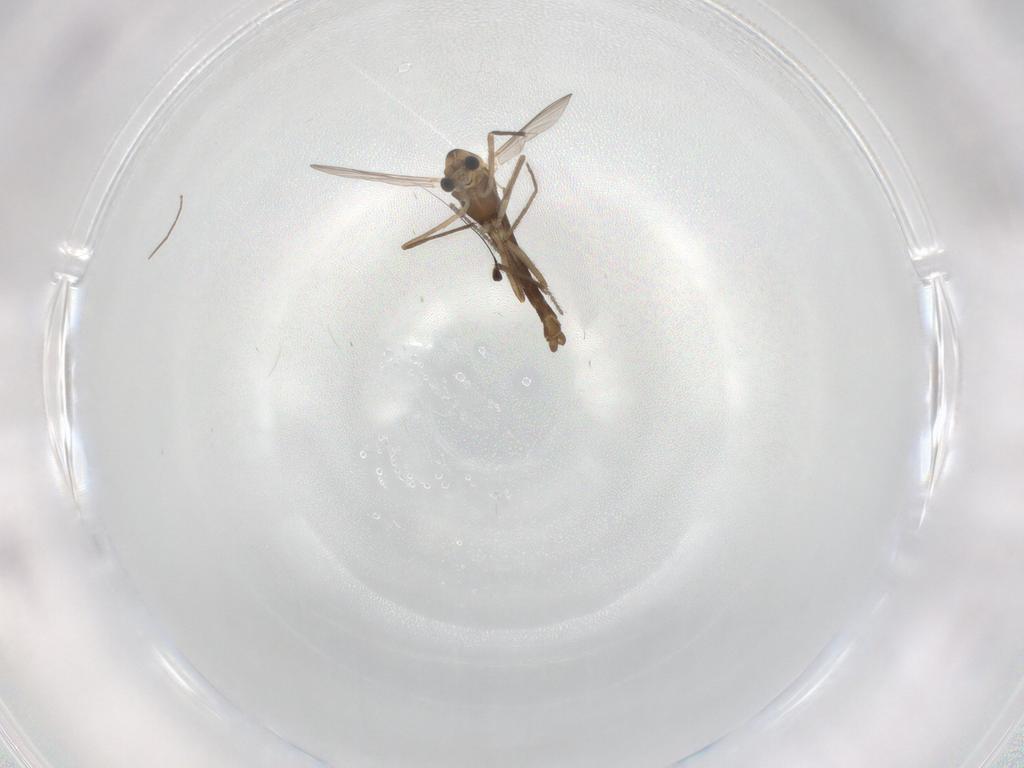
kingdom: Animalia
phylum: Arthropoda
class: Insecta
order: Diptera
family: Chironomidae
